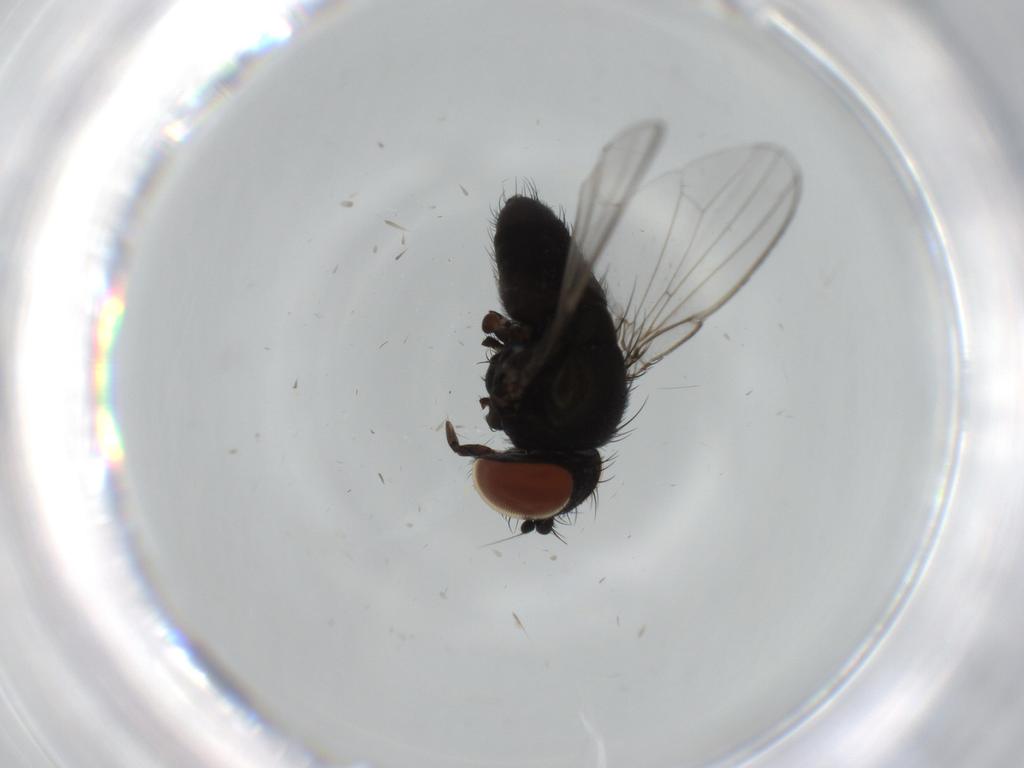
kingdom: Animalia
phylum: Arthropoda
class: Insecta
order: Diptera
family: Milichiidae
